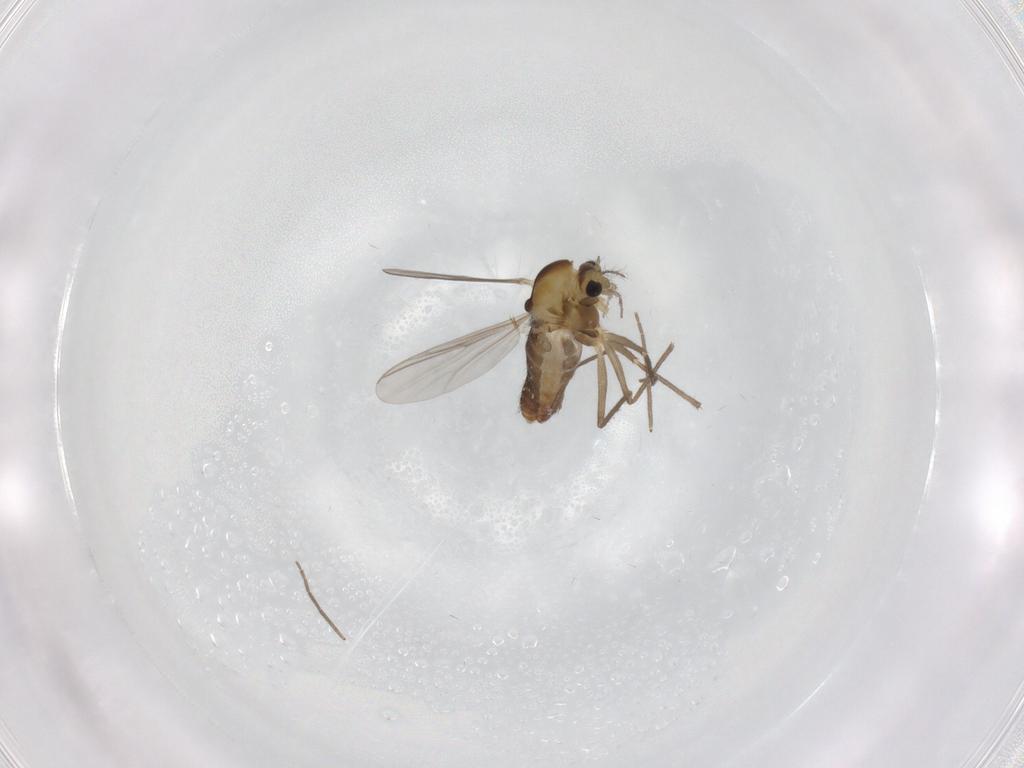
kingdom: Animalia
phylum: Arthropoda
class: Insecta
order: Diptera
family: Chironomidae
